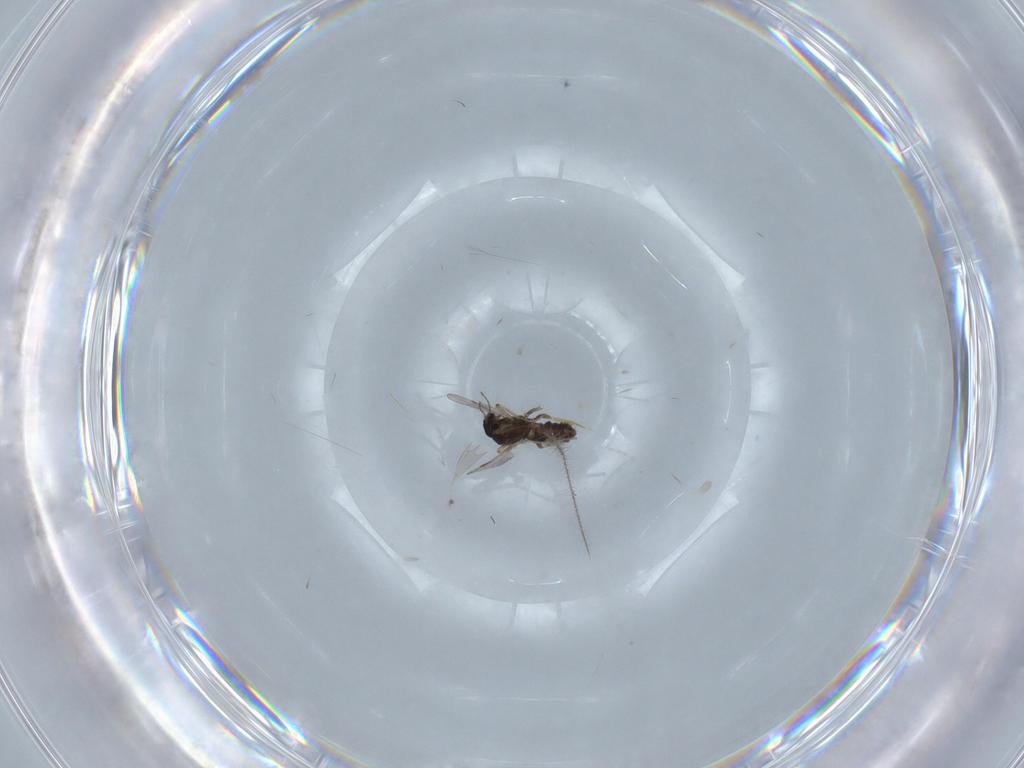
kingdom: Animalia
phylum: Arthropoda
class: Insecta
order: Diptera
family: Ceratopogonidae
